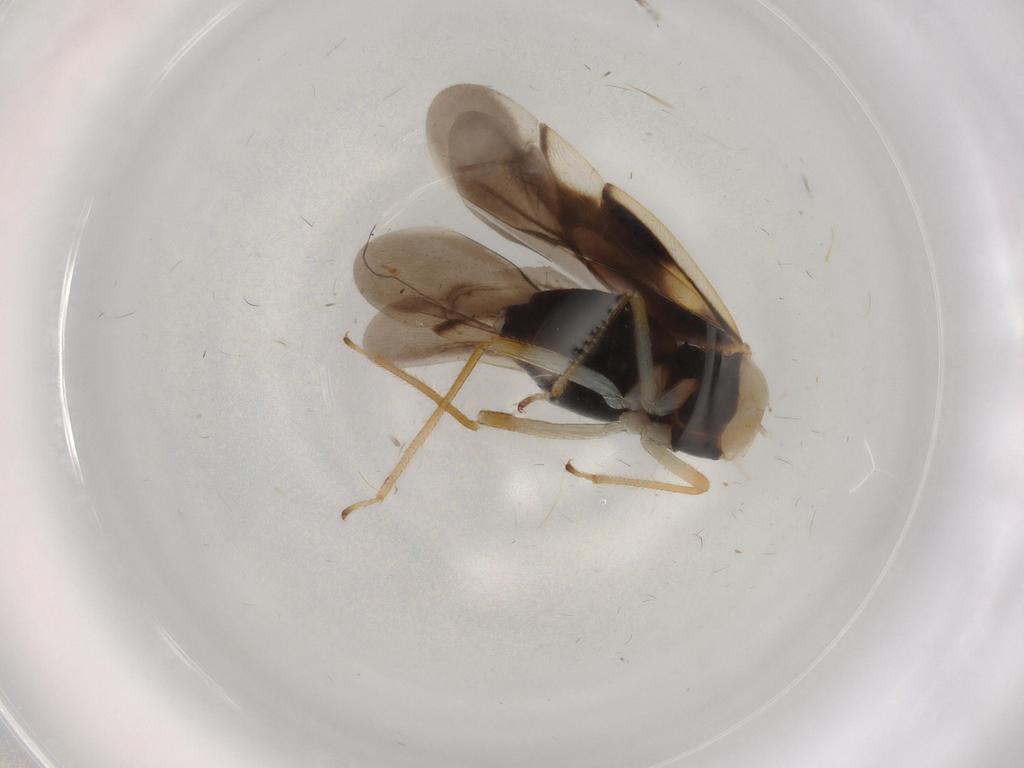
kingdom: Animalia
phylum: Arthropoda
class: Insecta
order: Hemiptera
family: Miridae
